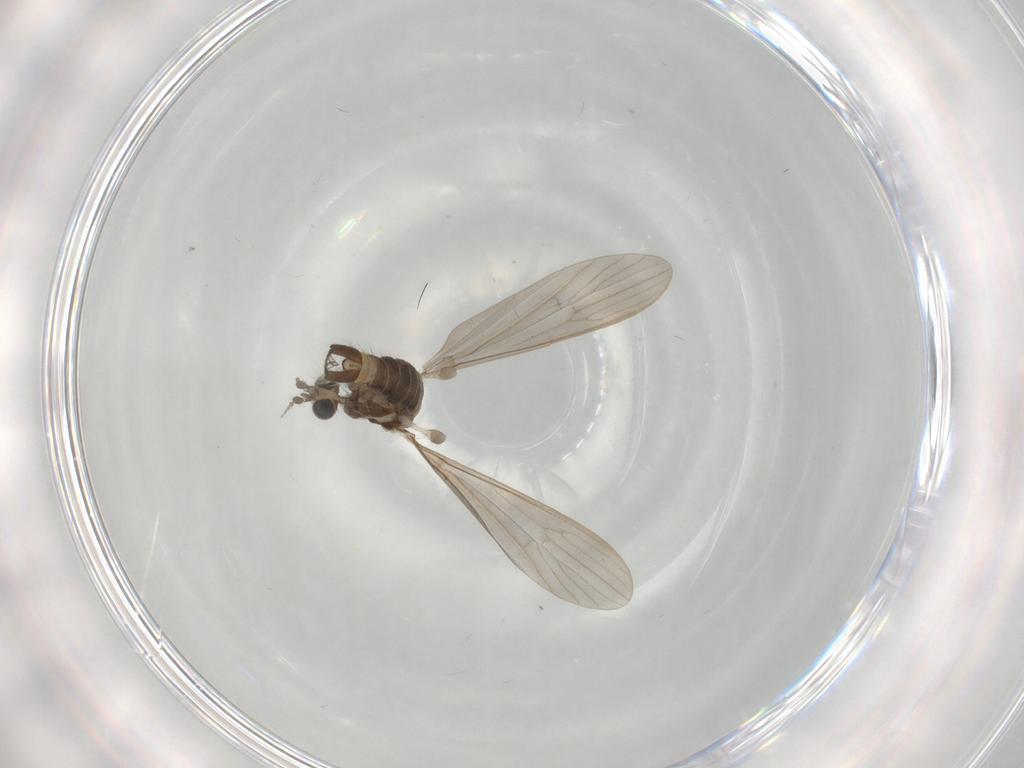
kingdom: Animalia
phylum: Arthropoda
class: Insecta
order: Diptera
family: Dolichopodidae
